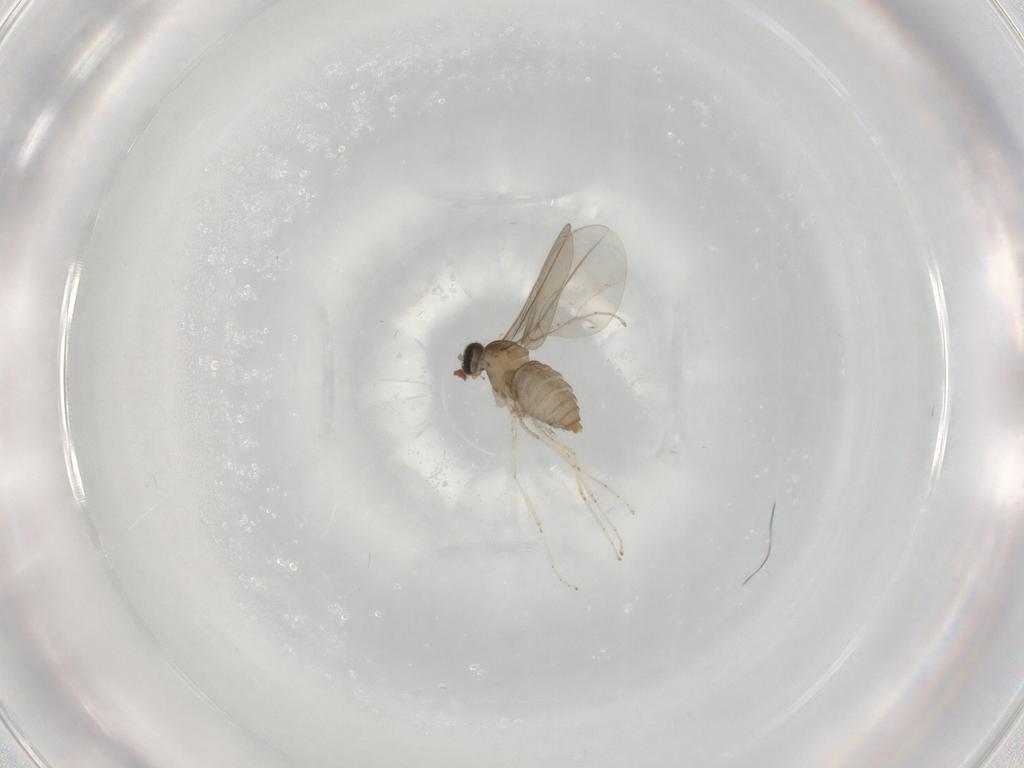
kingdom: Animalia
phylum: Arthropoda
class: Insecta
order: Diptera
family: Cecidomyiidae
